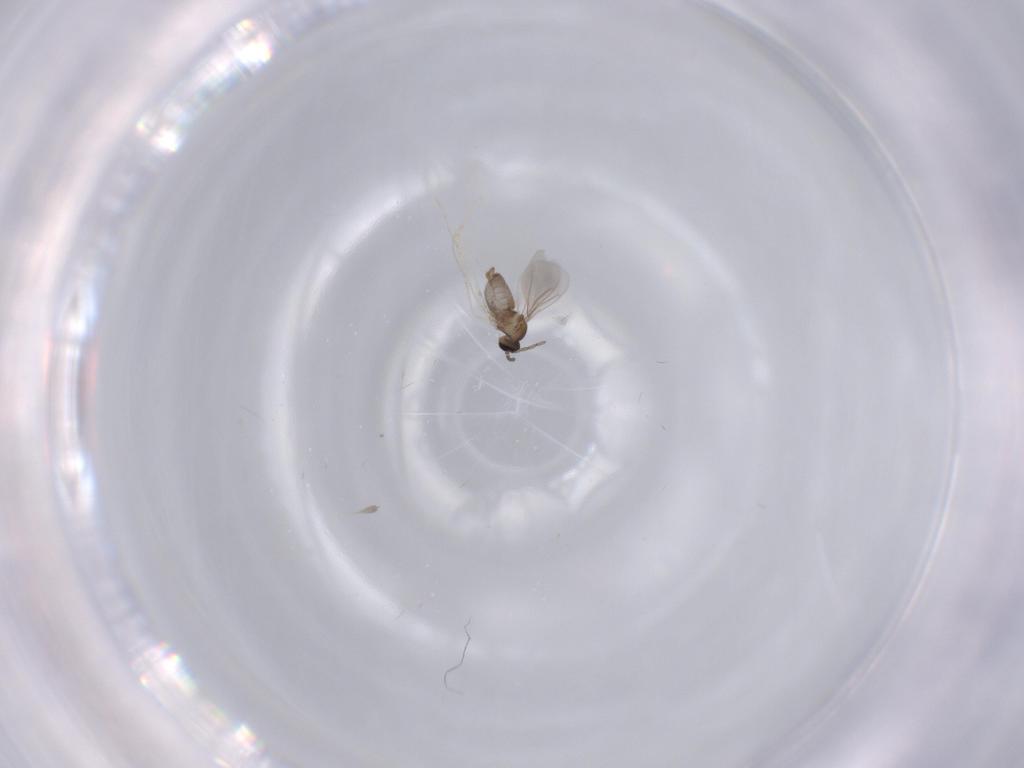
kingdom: Animalia
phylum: Arthropoda
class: Insecta
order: Diptera
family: Cecidomyiidae
